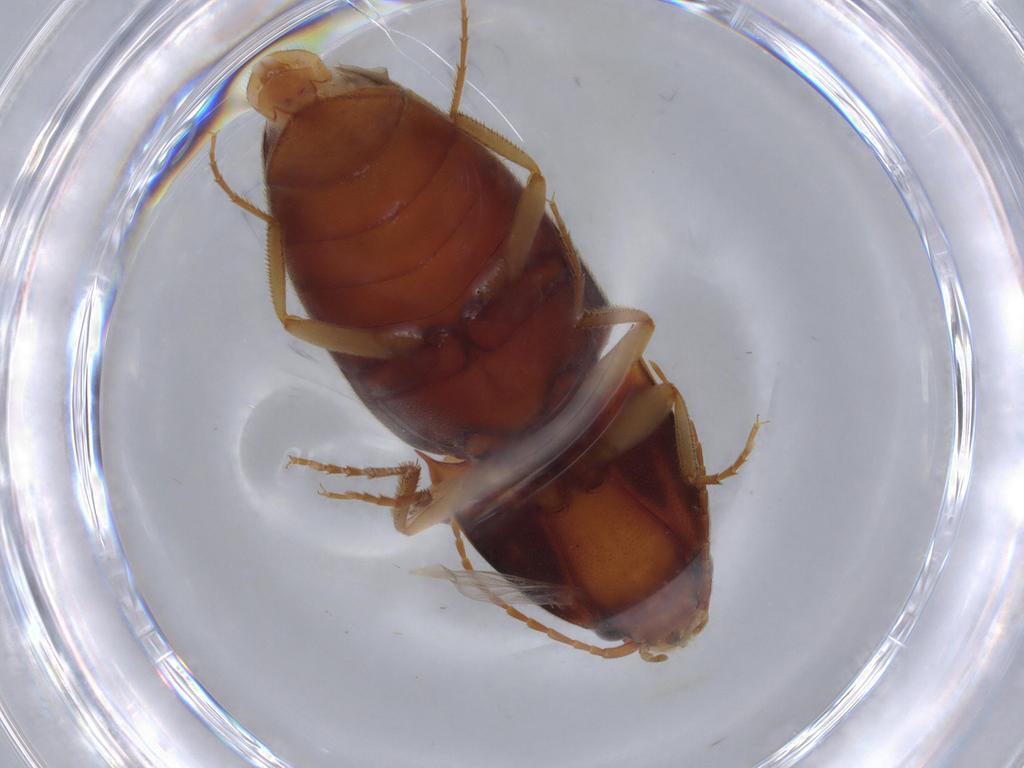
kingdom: Animalia
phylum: Arthropoda
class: Insecta
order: Coleoptera
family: Elateridae
